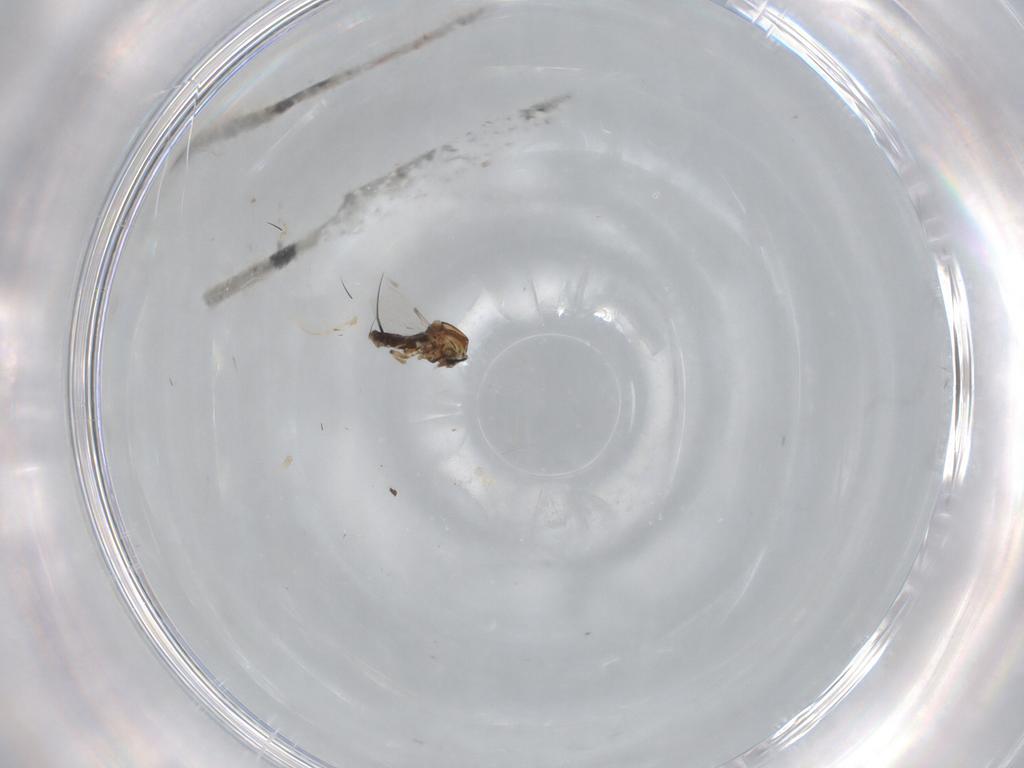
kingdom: Animalia
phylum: Arthropoda
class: Insecta
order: Diptera
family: Ceratopogonidae
